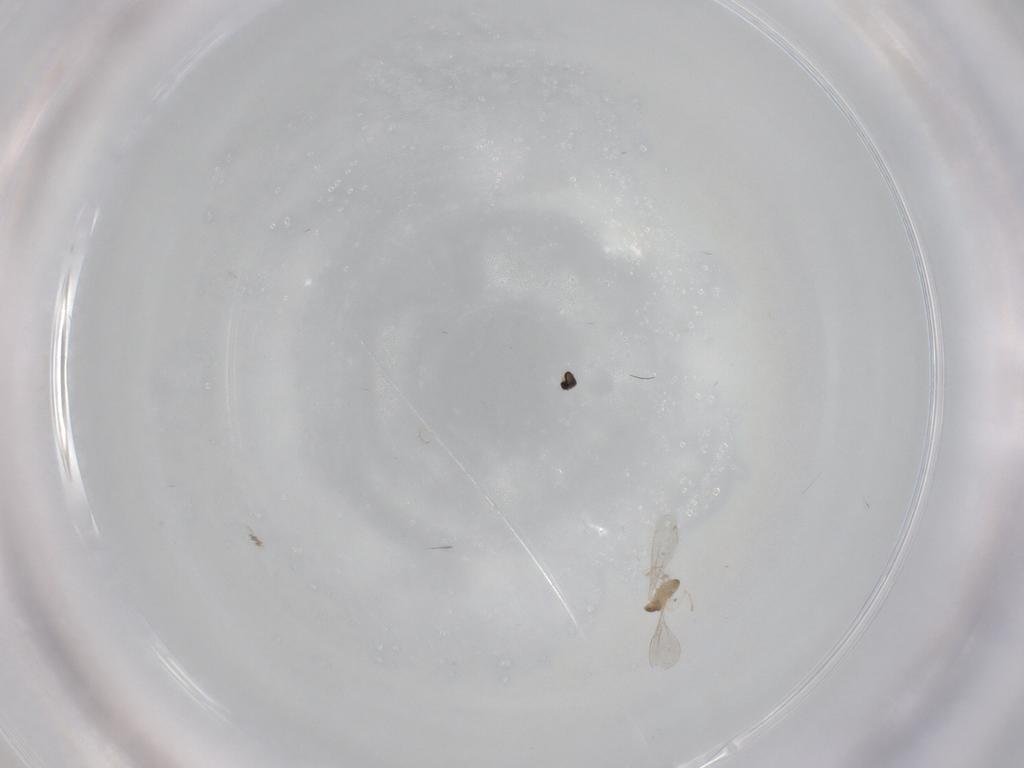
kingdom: Animalia
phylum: Arthropoda
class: Insecta
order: Diptera
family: Cecidomyiidae
